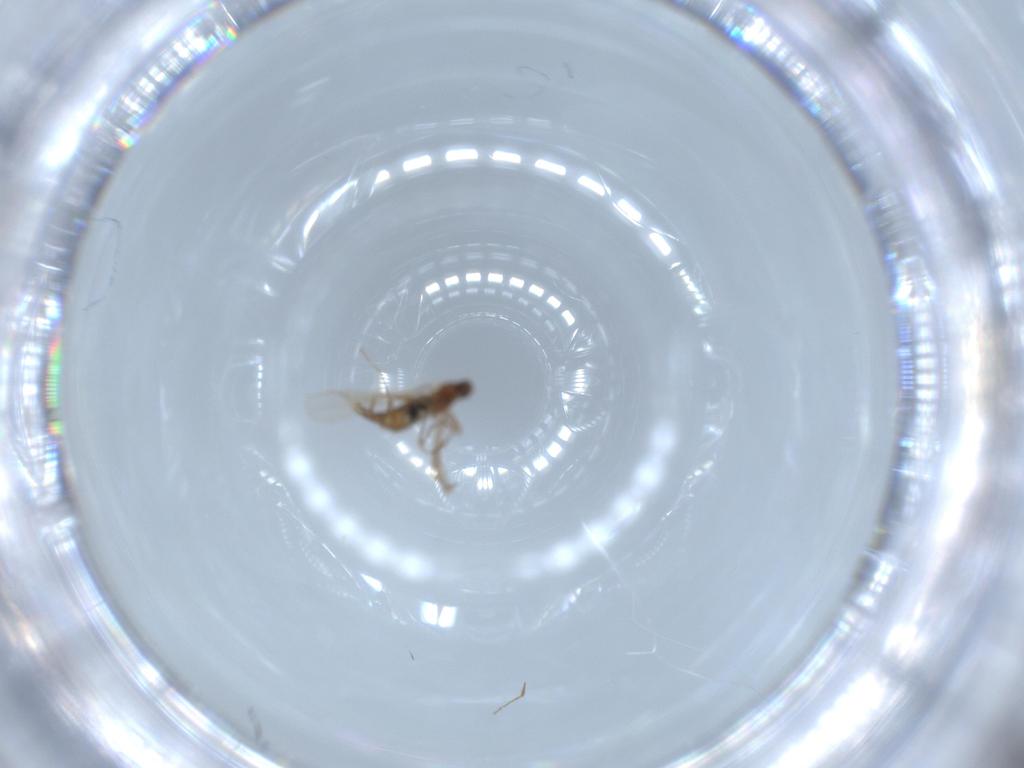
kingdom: Animalia
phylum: Arthropoda
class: Insecta
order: Diptera
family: Cecidomyiidae
